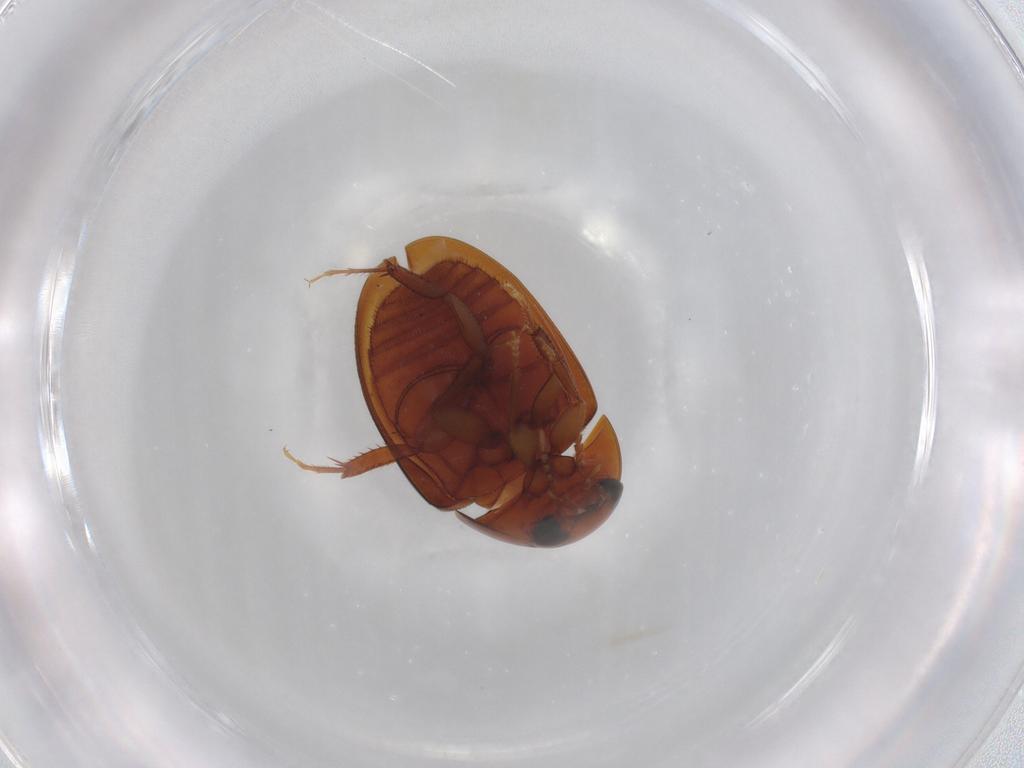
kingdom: Animalia
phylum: Arthropoda
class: Insecta
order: Coleoptera
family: Phalacridae
